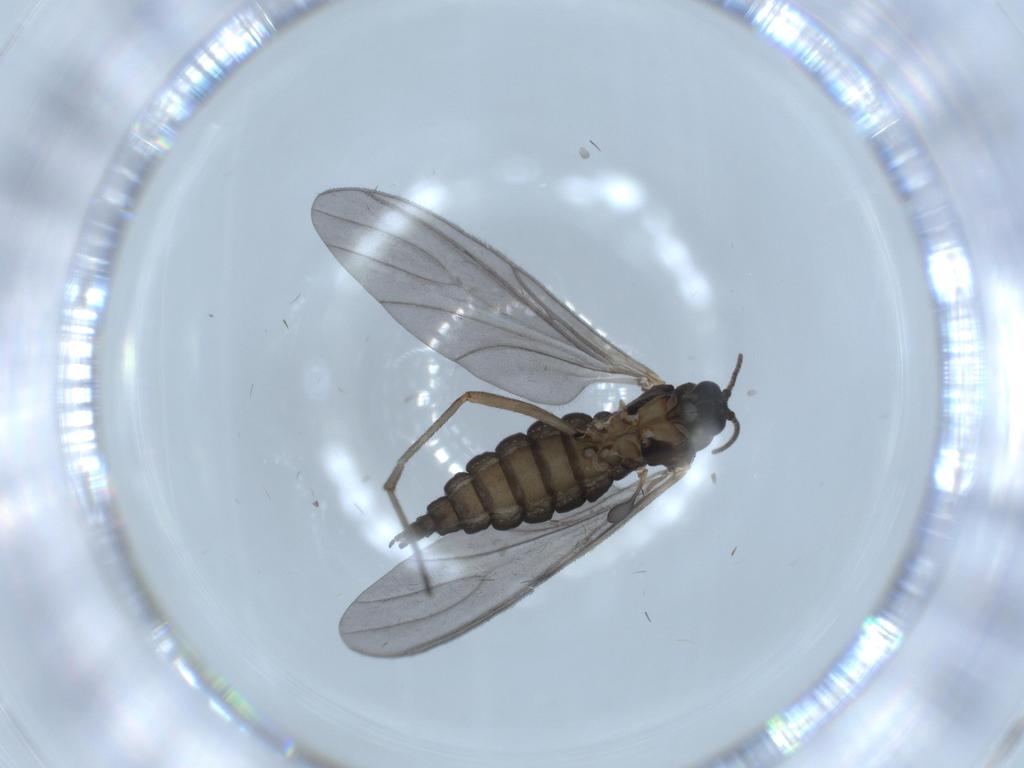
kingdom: Animalia
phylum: Arthropoda
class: Insecta
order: Diptera
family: Sciaridae
